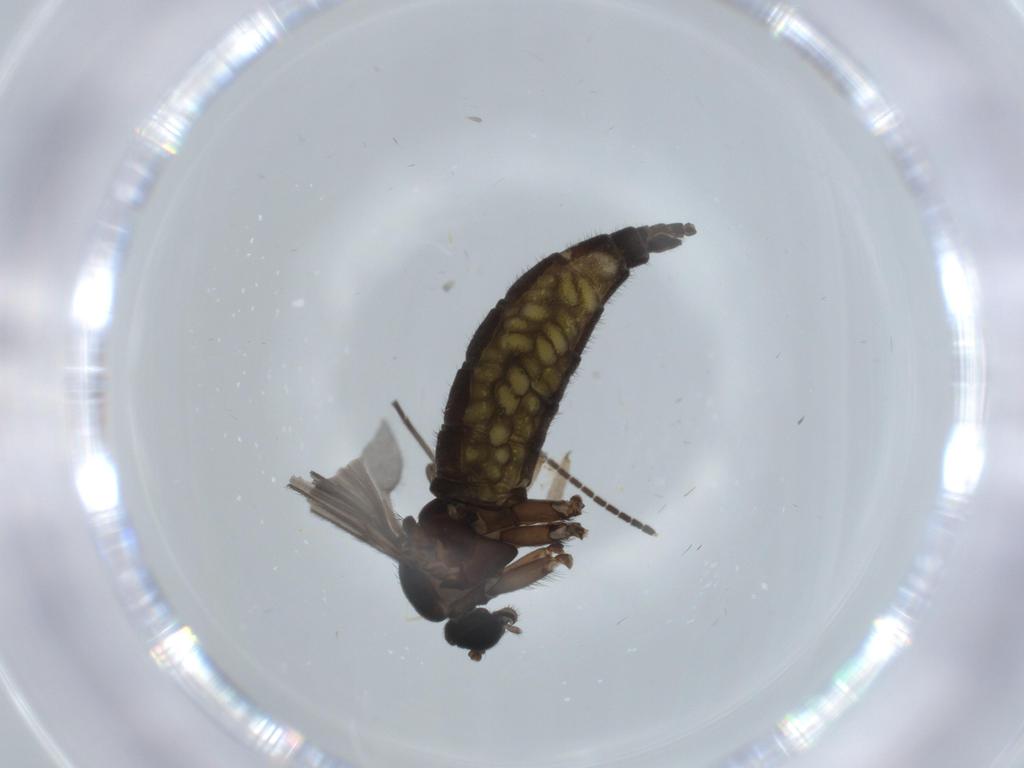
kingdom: Animalia
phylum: Arthropoda
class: Insecta
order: Diptera
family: Sciaridae
